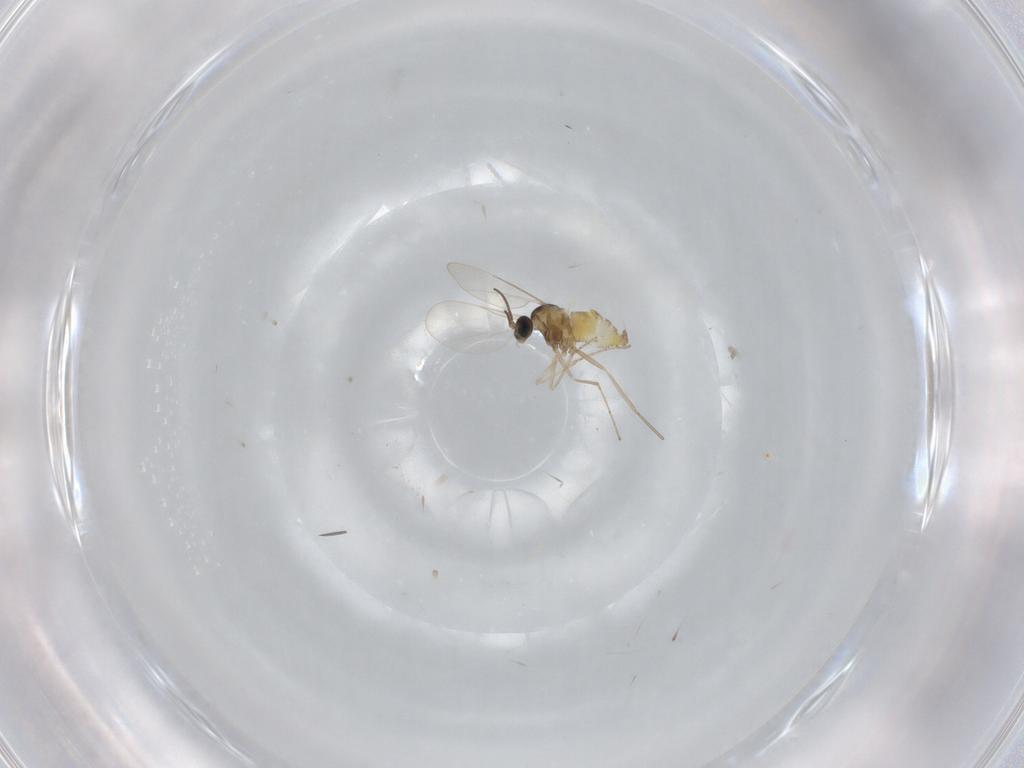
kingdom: Animalia
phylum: Arthropoda
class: Insecta
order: Diptera
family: Cecidomyiidae
